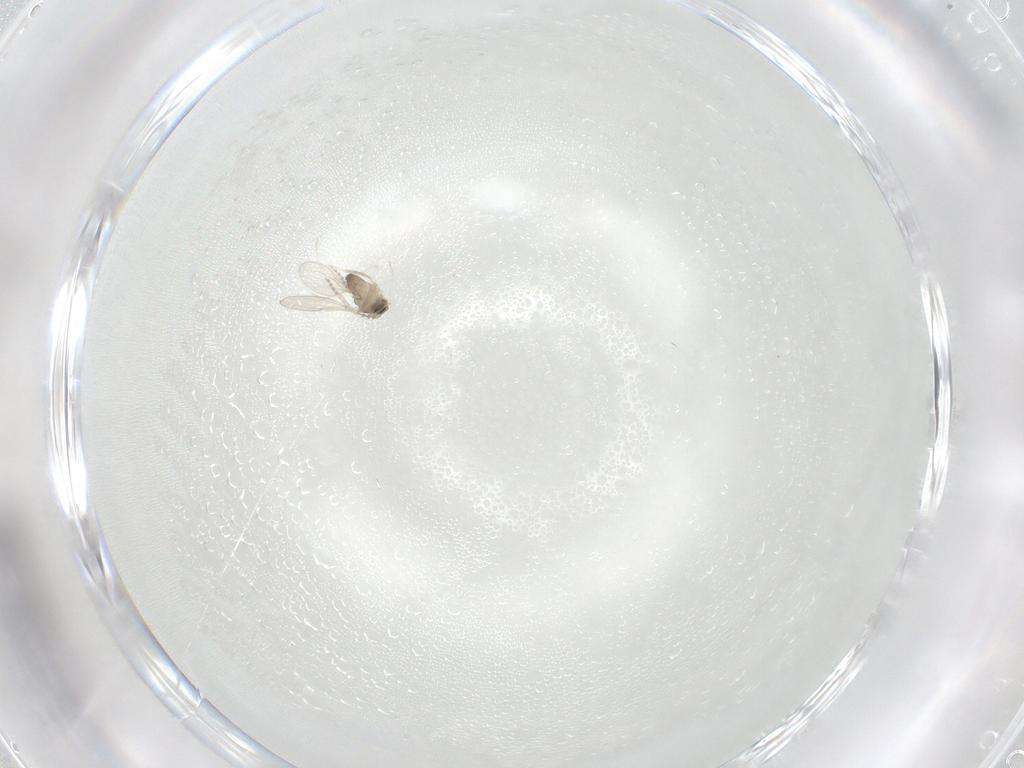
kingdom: Animalia
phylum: Arthropoda
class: Insecta
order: Diptera
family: Cecidomyiidae
